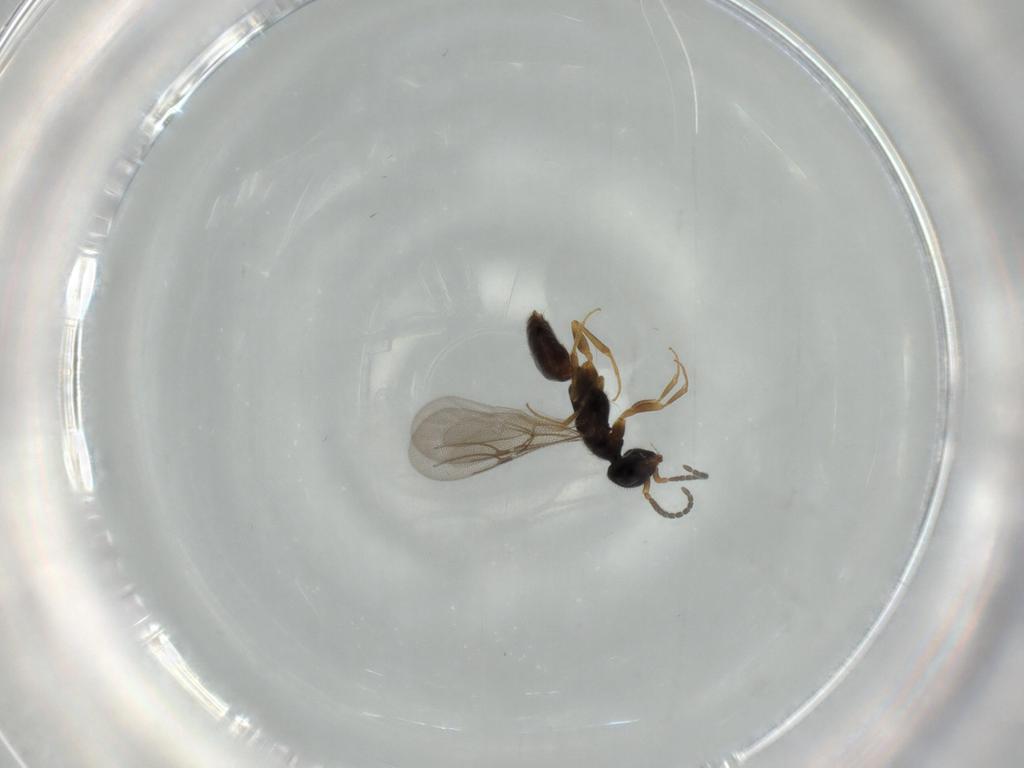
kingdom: Animalia
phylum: Arthropoda
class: Insecta
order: Hymenoptera
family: Bethylidae
